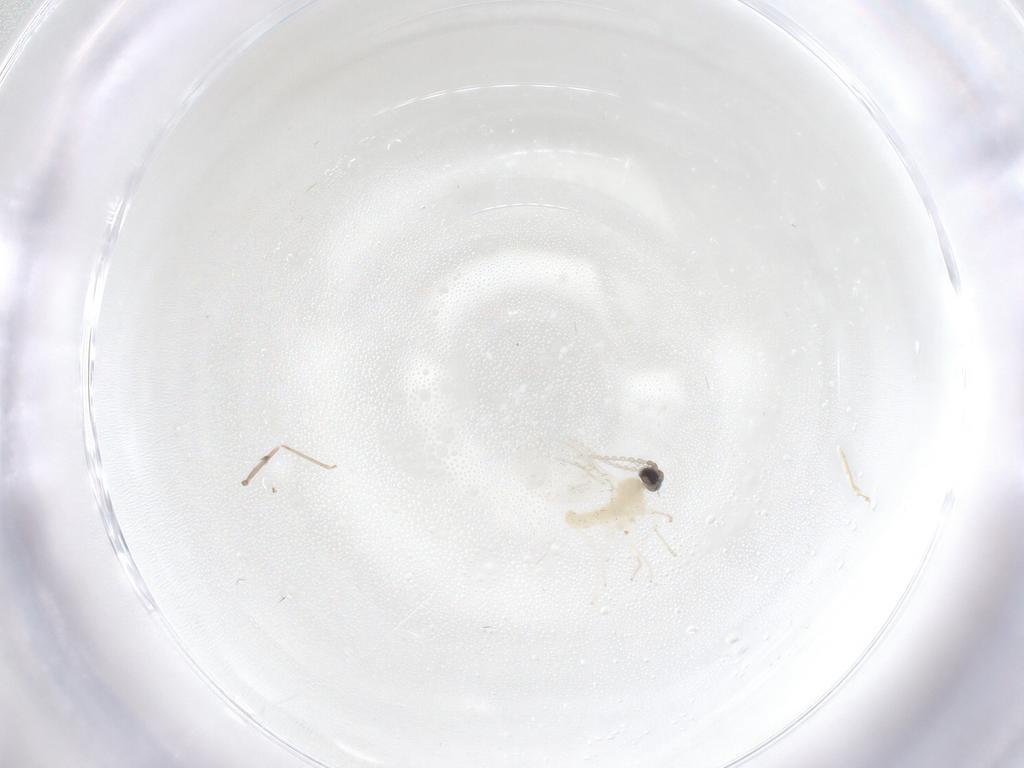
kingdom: Animalia
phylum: Arthropoda
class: Insecta
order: Diptera
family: Cecidomyiidae
